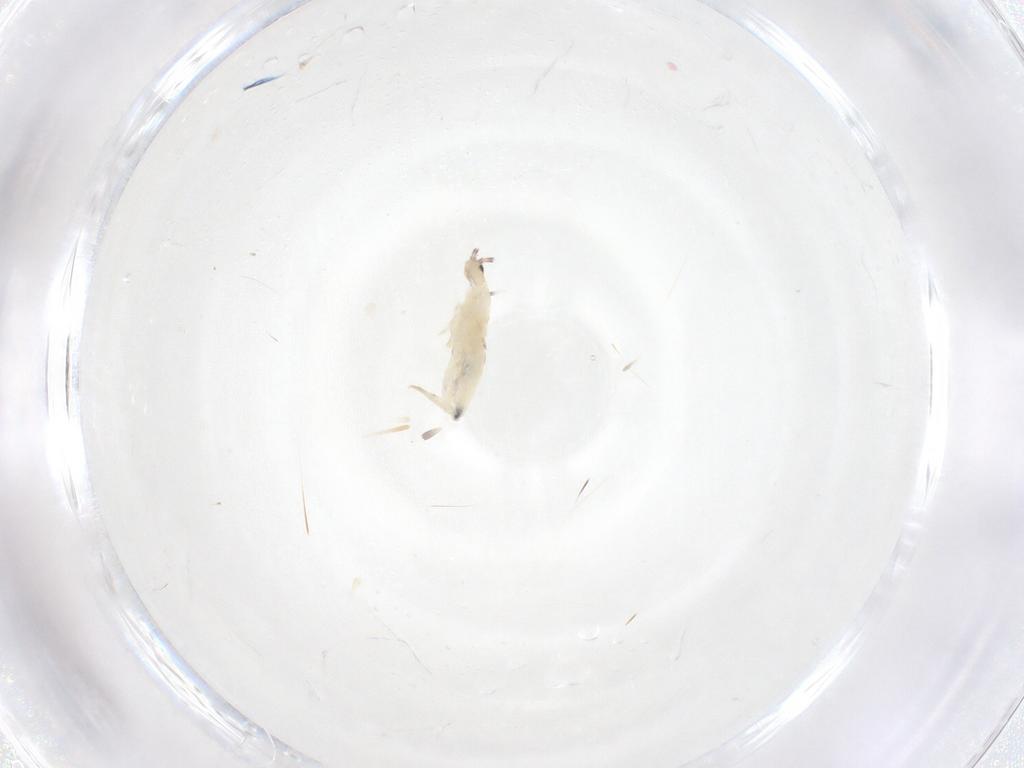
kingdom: Animalia
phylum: Arthropoda
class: Collembola
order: Entomobryomorpha
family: Entomobryidae
